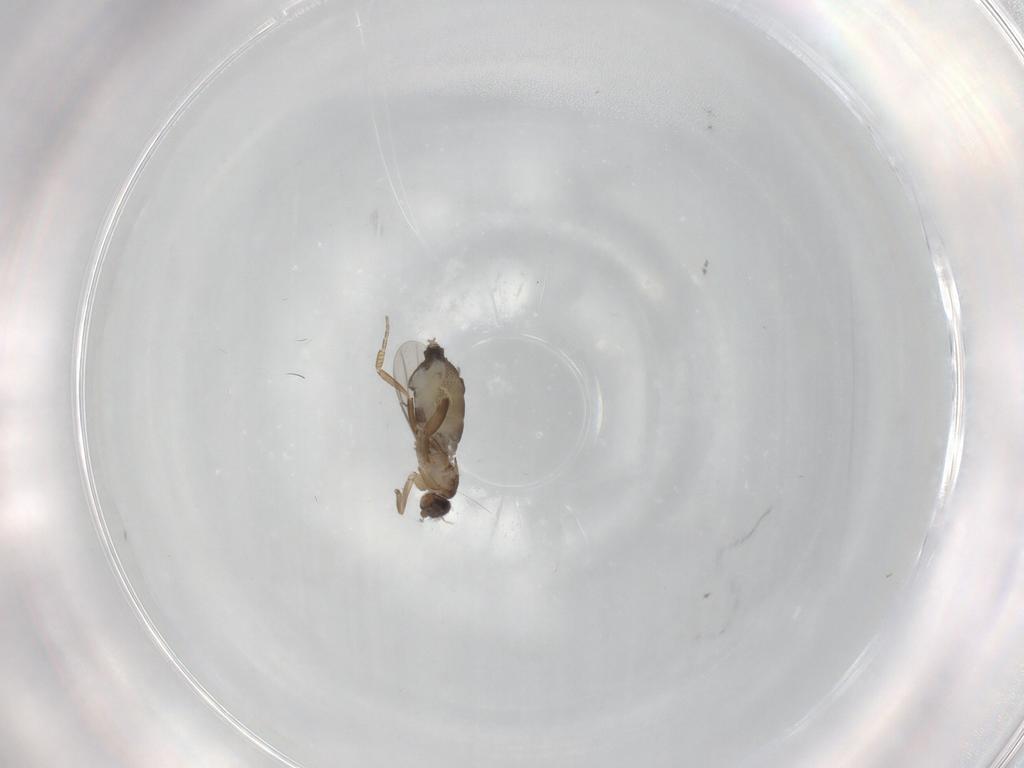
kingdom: Animalia
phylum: Arthropoda
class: Insecta
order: Diptera
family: Phoridae
